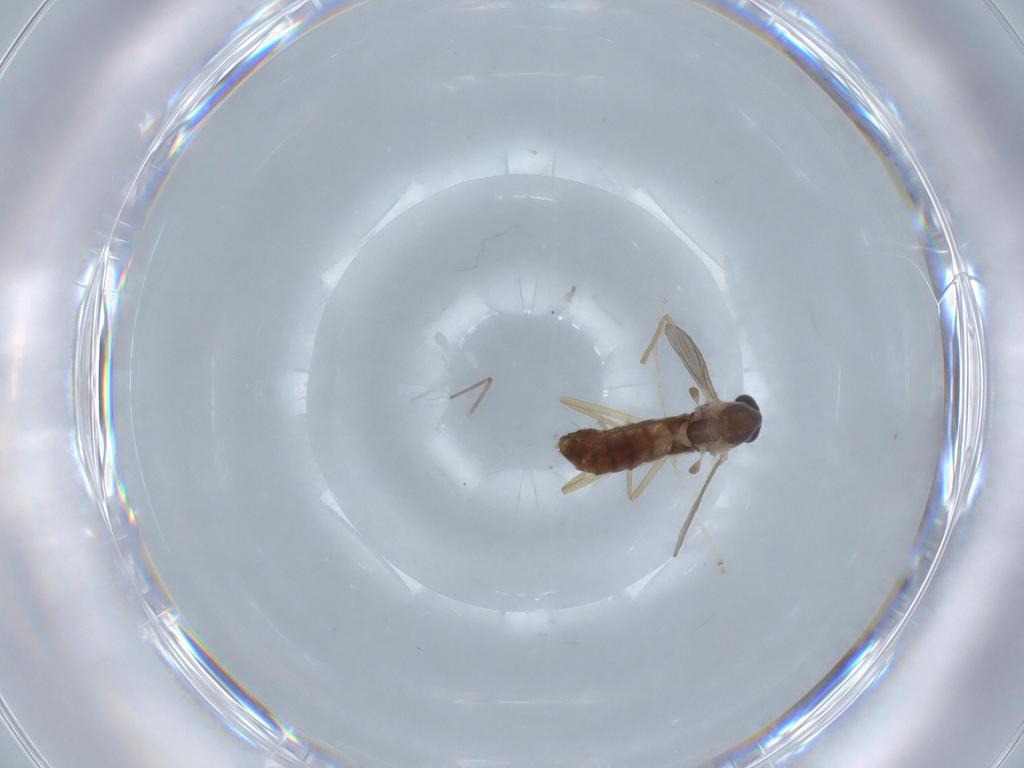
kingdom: Animalia
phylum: Arthropoda
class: Insecta
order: Diptera
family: Chironomidae
